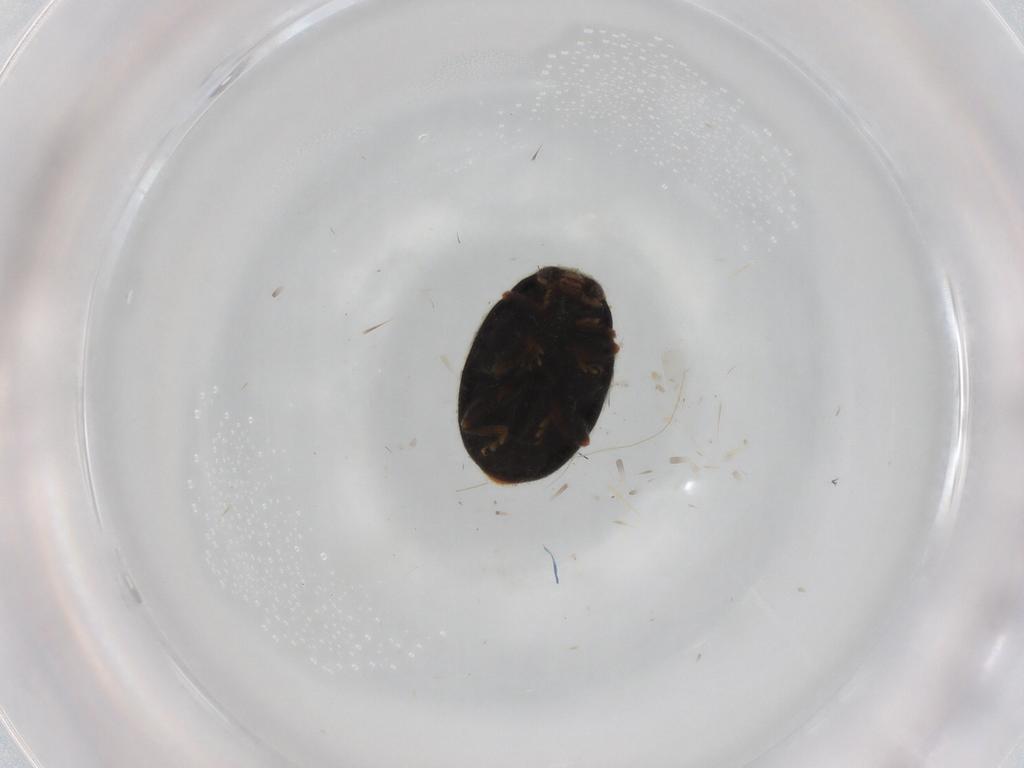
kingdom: Animalia
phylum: Arthropoda
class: Insecta
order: Coleoptera
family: Coccinellidae
